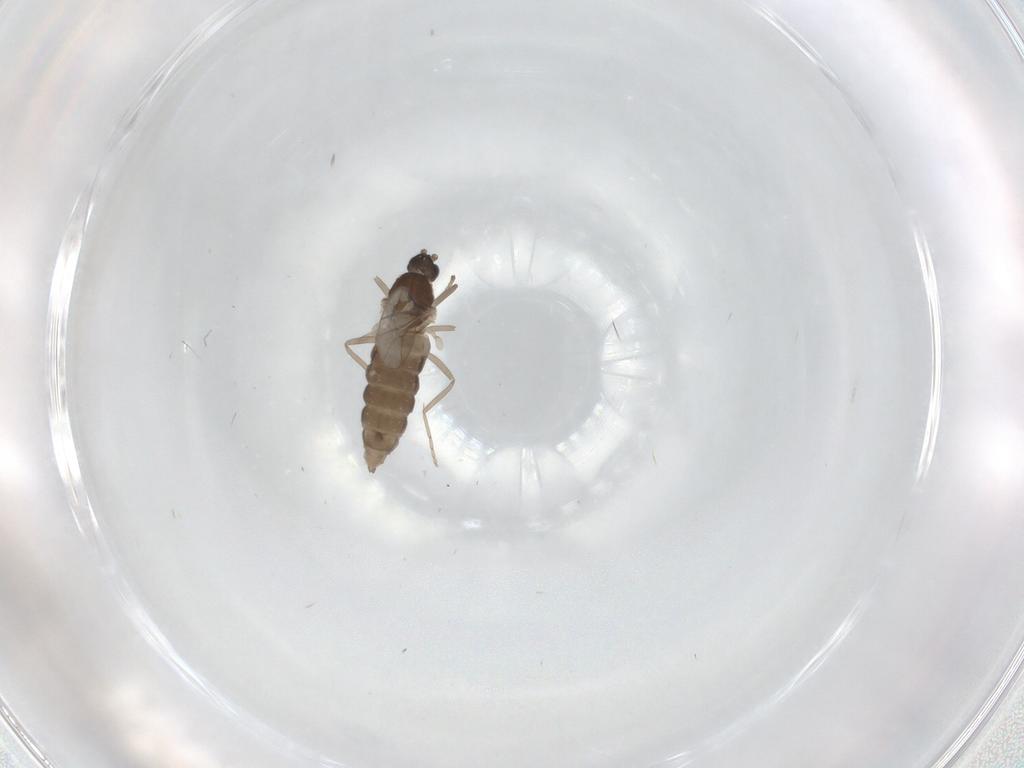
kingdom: Animalia
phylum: Arthropoda
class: Insecta
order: Diptera
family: Cecidomyiidae
